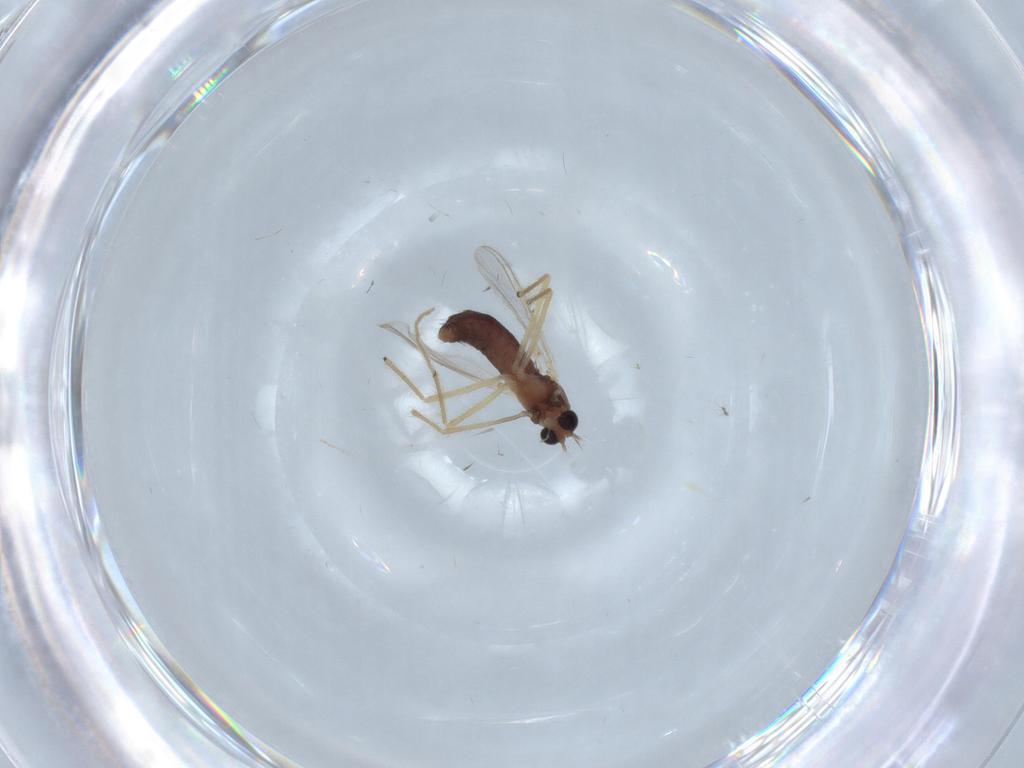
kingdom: Animalia
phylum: Arthropoda
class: Insecta
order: Diptera
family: Chironomidae
